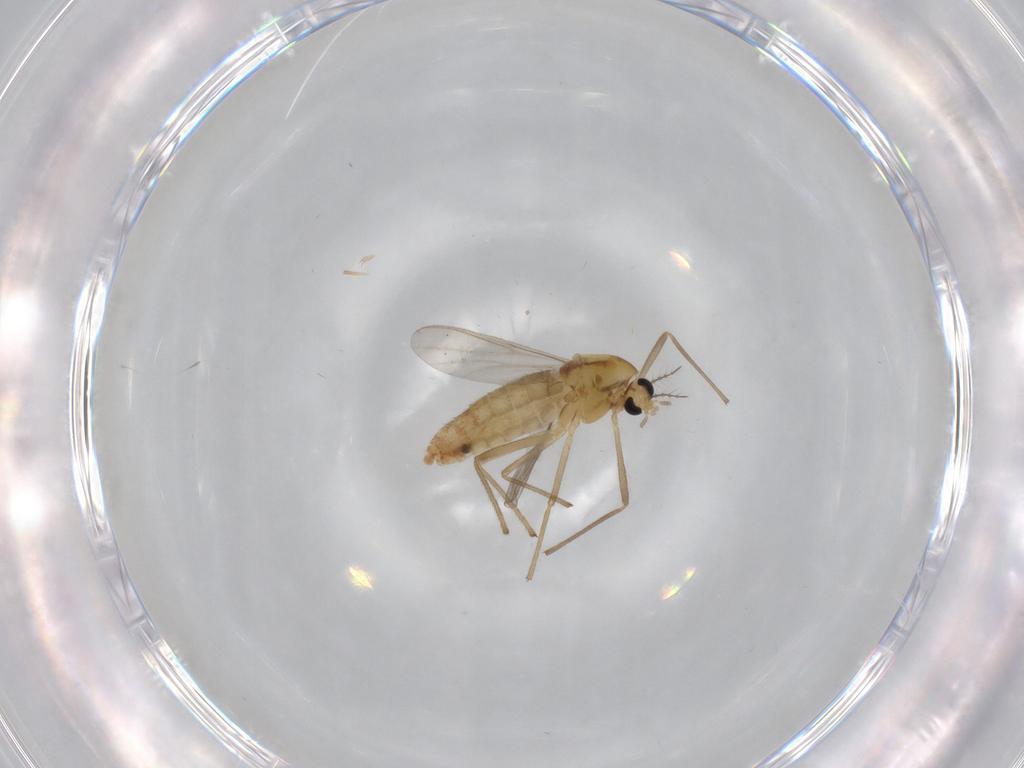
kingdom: Animalia
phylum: Arthropoda
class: Insecta
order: Diptera
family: Chironomidae
